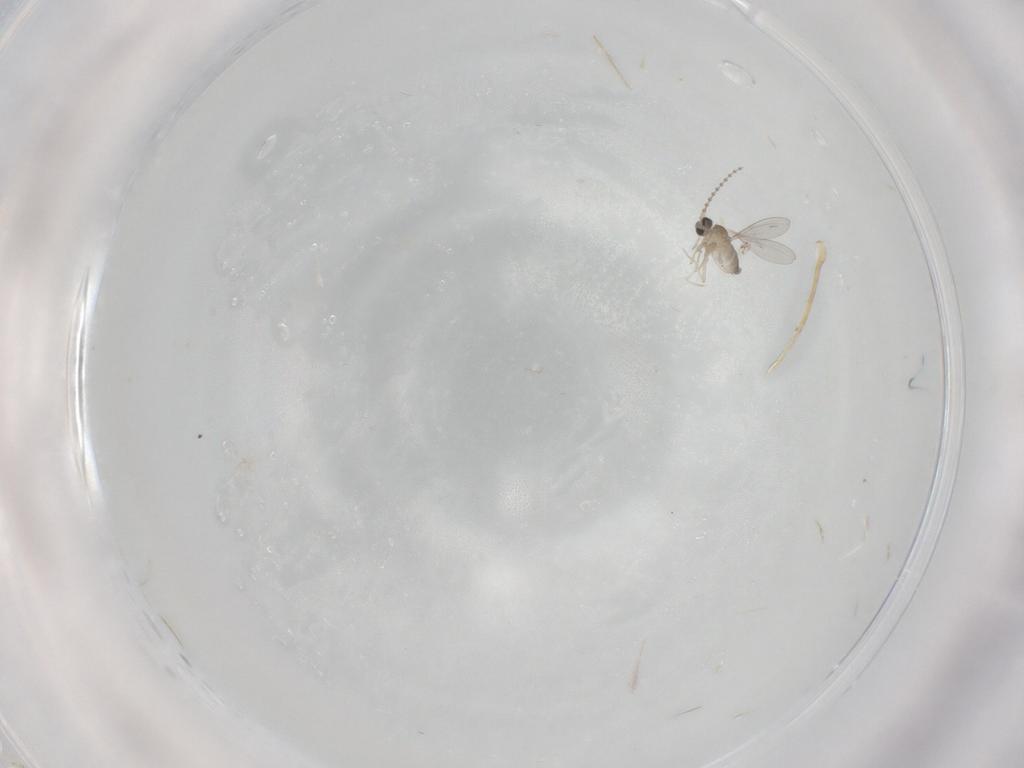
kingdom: Animalia
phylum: Arthropoda
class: Insecta
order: Diptera
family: Cecidomyiidae
